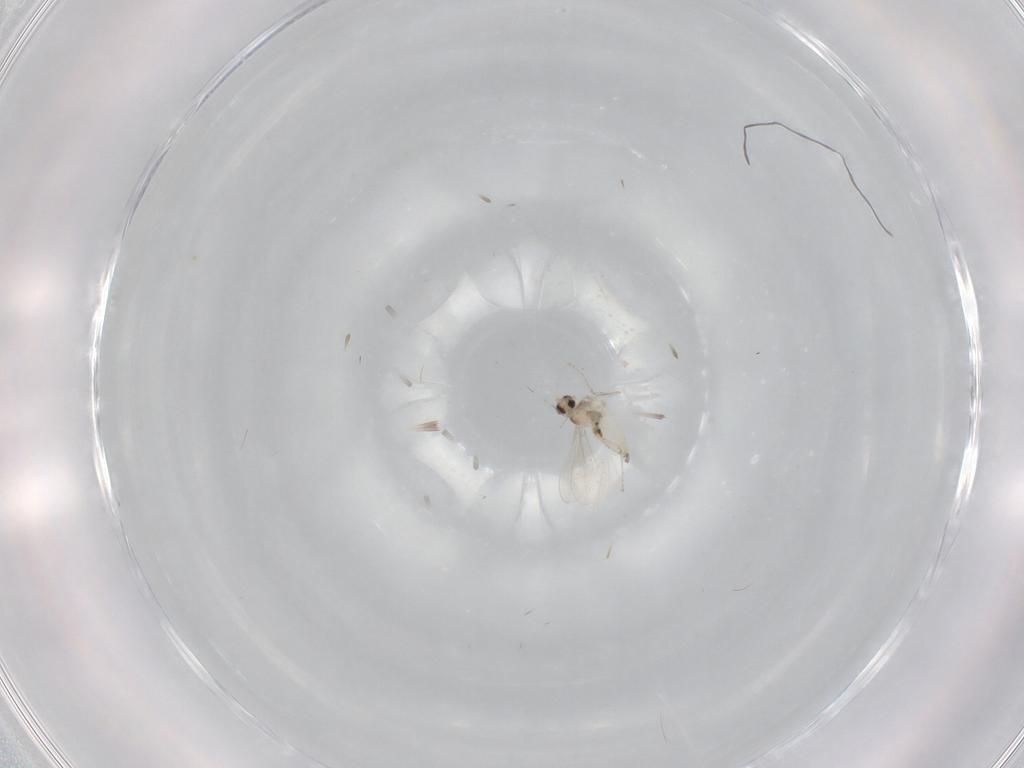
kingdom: Animalia
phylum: Arthropoda
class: Insecta
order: Diptera
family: Cecidomyiidae
